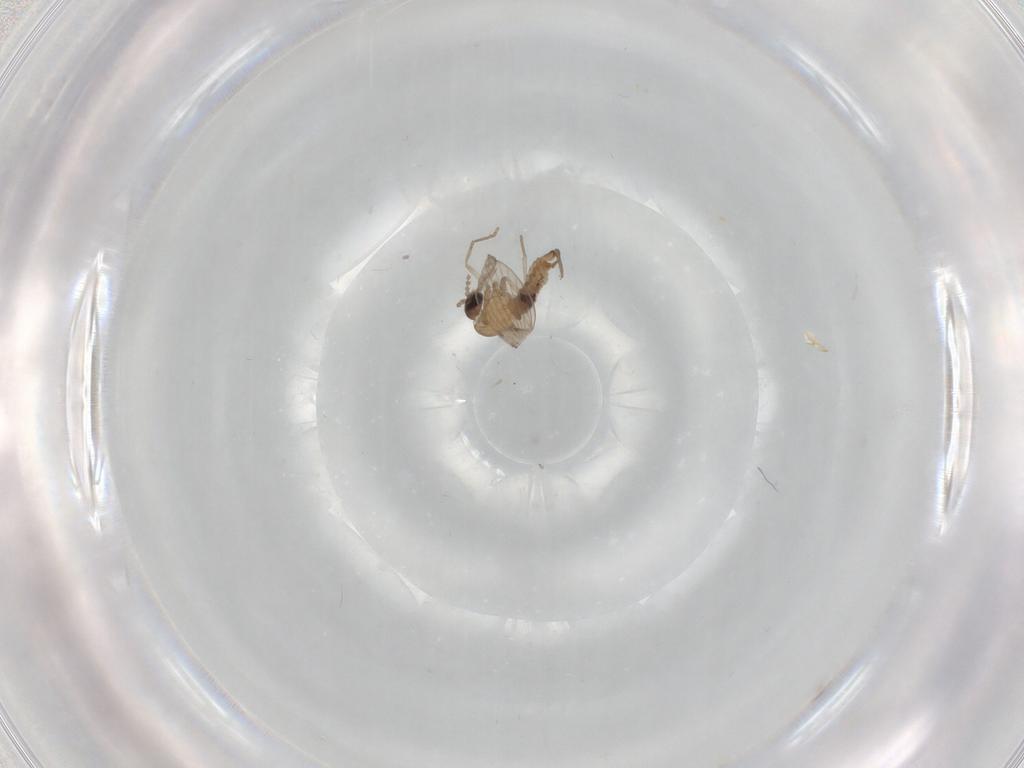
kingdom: Animalia
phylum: Arthropoda
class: Insecta
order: Diptera
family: Psychodidae
